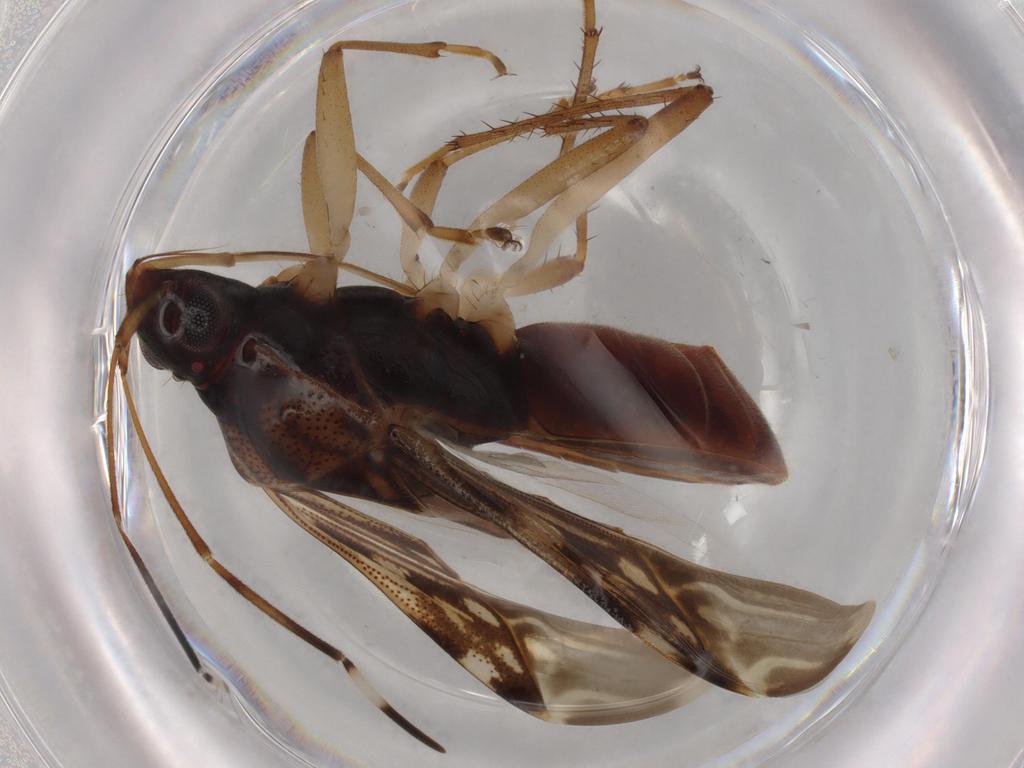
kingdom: Animalia
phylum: Arthropoda
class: Insecta
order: Hemiptera
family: Rhyparochromidae
